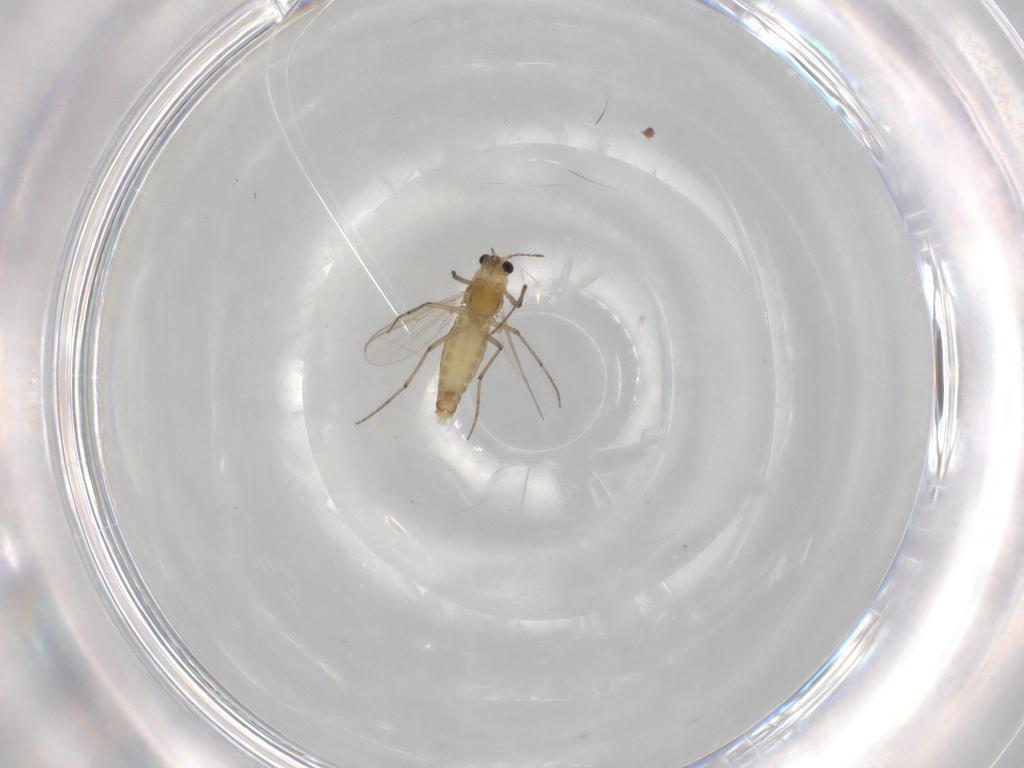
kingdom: Animalia
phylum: Arthropoda
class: Insecta
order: Diptera
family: Chironomidae
